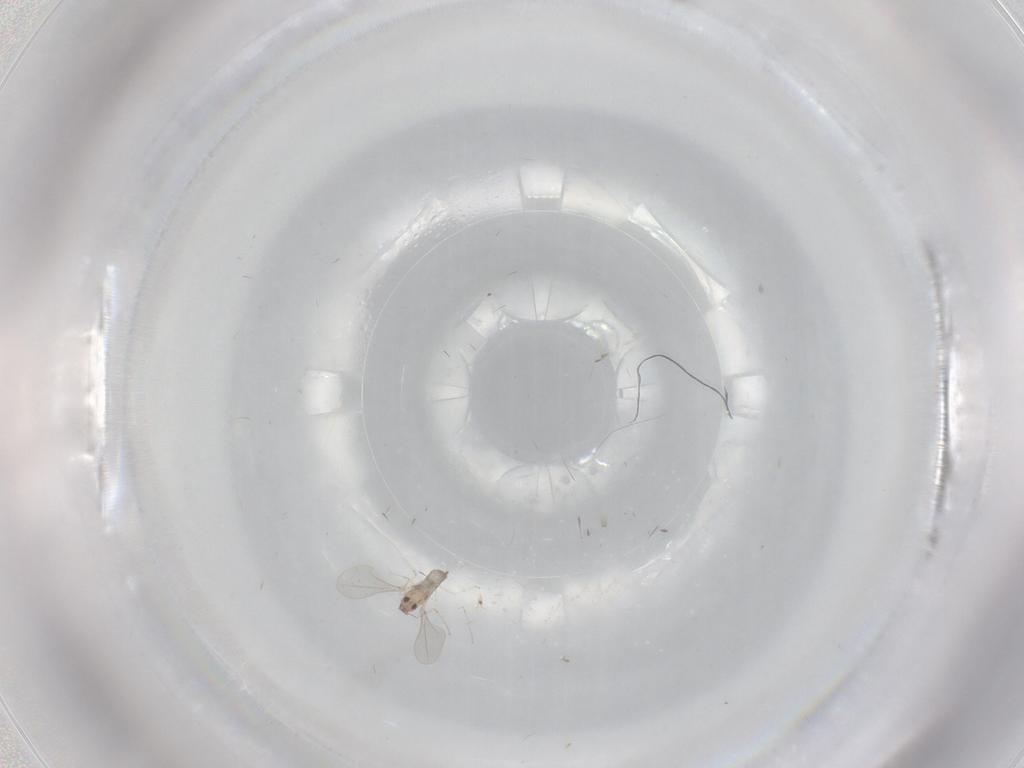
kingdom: Animalia
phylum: Arthropoda
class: Insecta
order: Diptera
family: Cecidomyiidae
